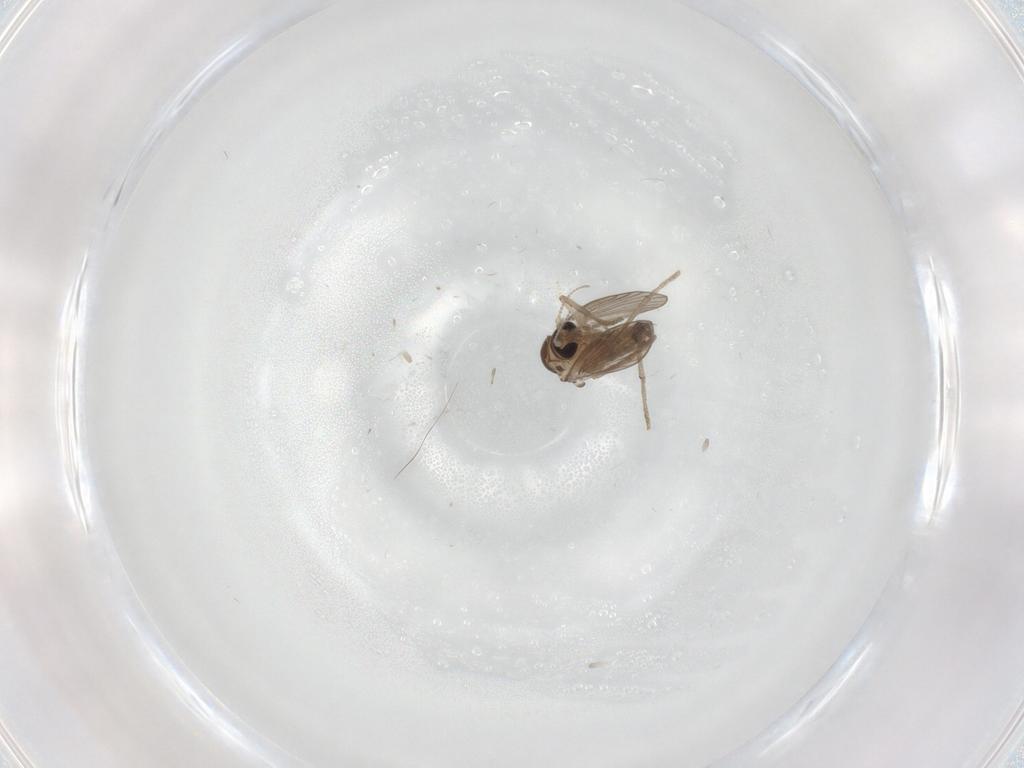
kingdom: Animalia
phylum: Arthropoda
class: Insecta
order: Diptera
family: Psychodidae
